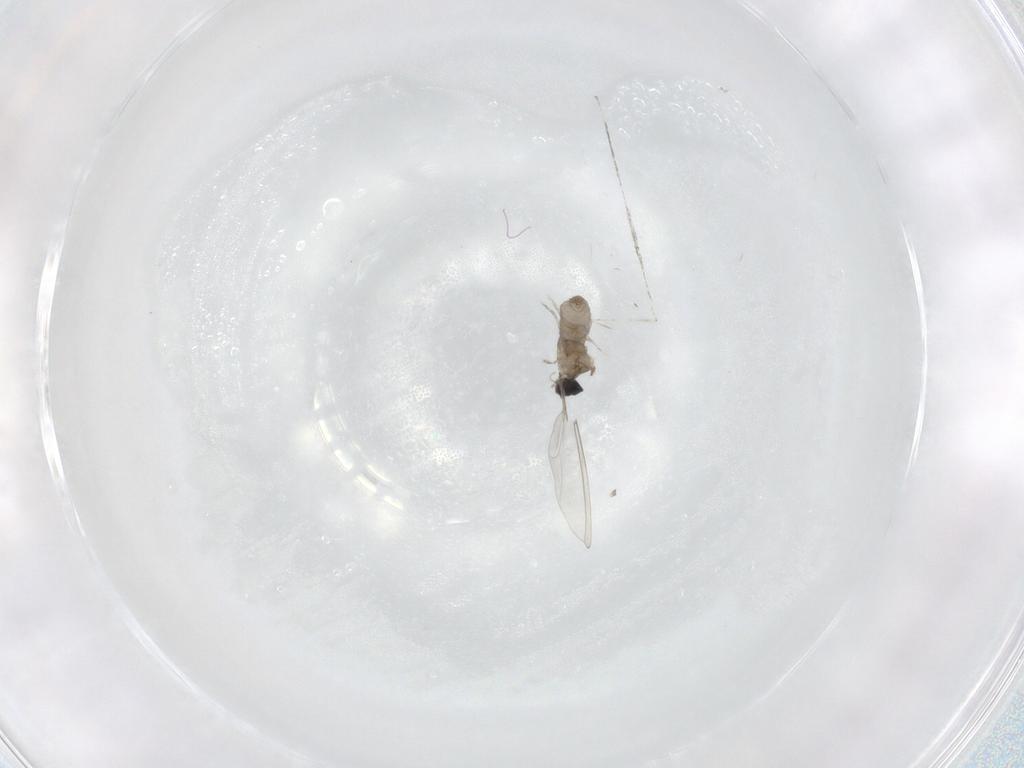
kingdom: Animalia
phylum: Arthropoda
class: Insecta
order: Diptera
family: Cecidomyiidae
